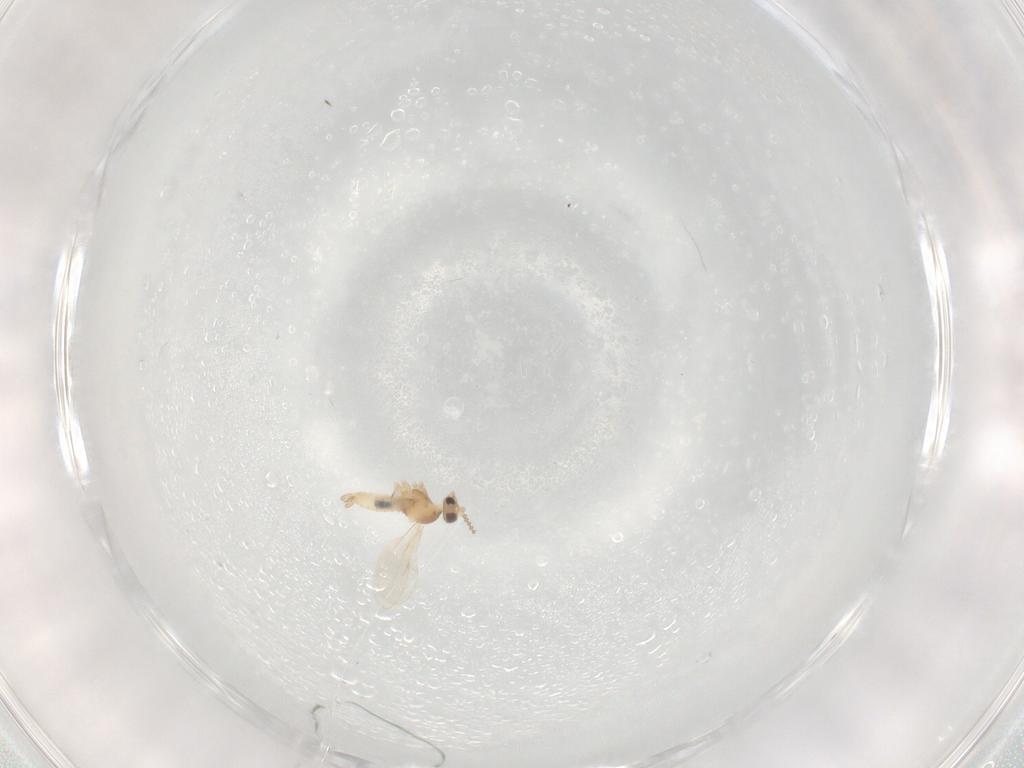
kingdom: Animalia
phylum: Arthropoda
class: Insecta
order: Diptera
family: Cecidomyiidae
